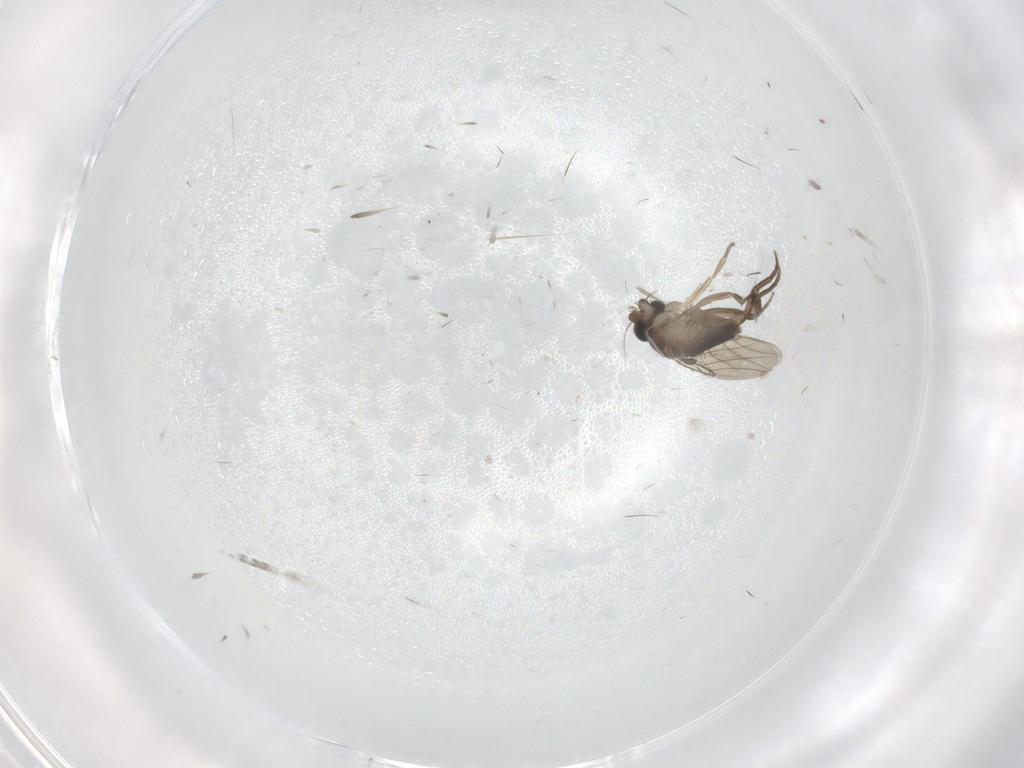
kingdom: Animalia
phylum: Arthropoda
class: Insecta
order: Diptera
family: Phoridae
